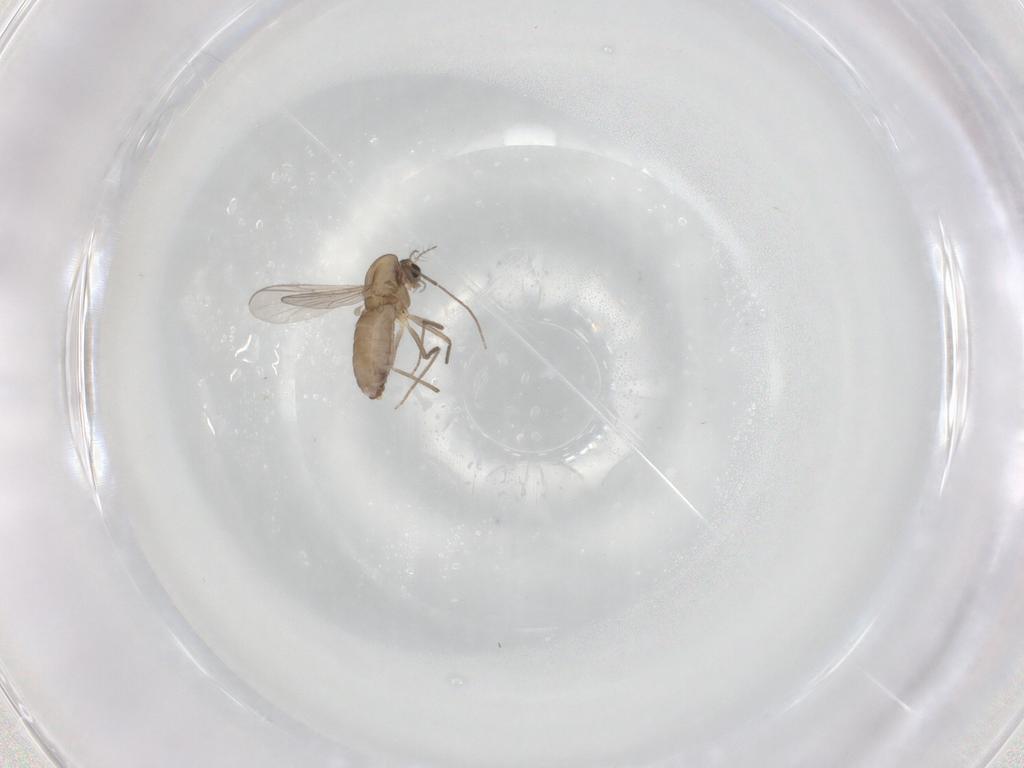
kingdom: Animalia
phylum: Arthropoda
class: Insecta
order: Diptera
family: Chironomidae
